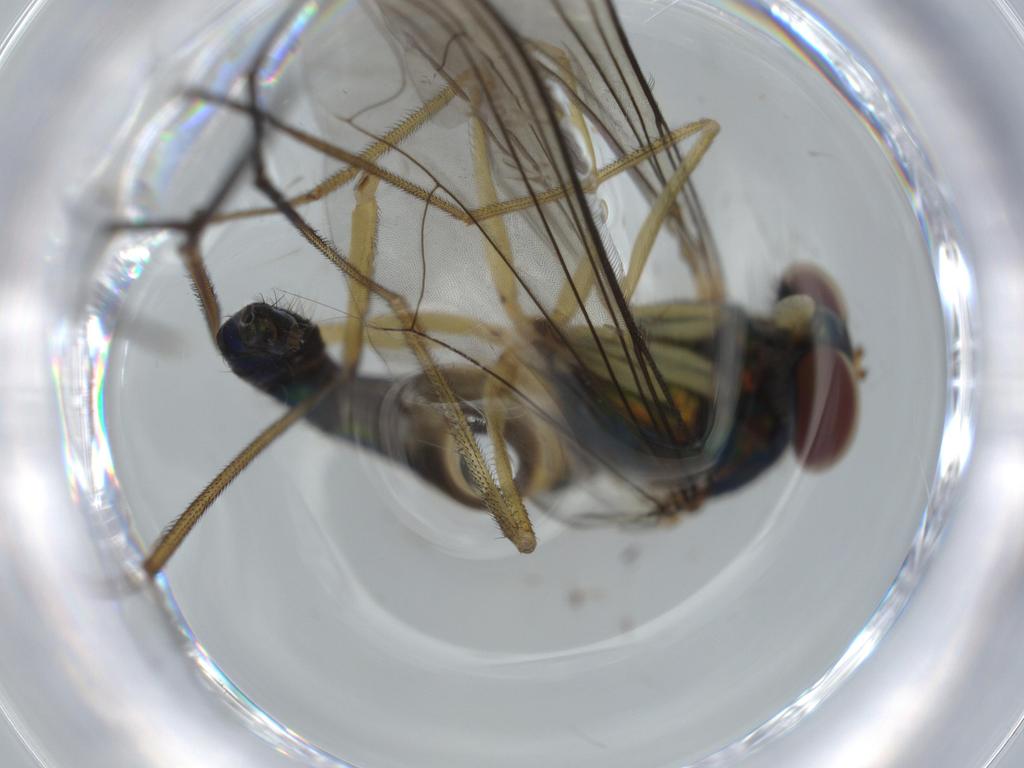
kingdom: Animalia
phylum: Arthropoda
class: Insecta
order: Diptera
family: Dolichopodidae
